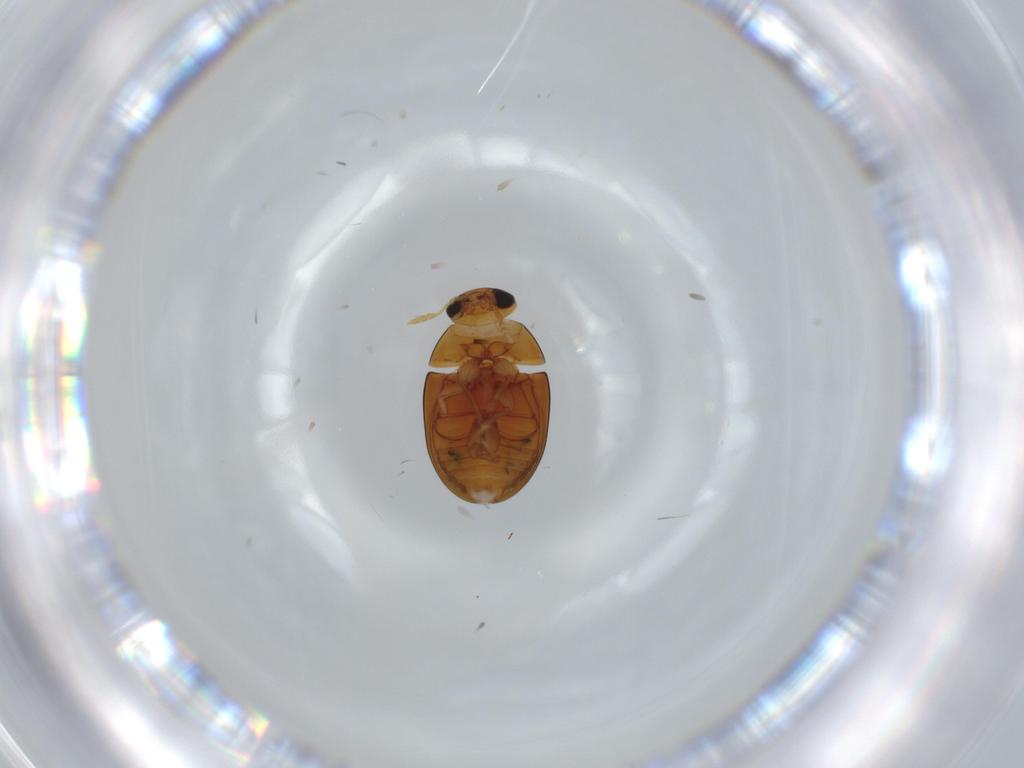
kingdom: Animalia
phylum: Arthropoda
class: Insecta
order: Coleoptera
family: Phalacridae
